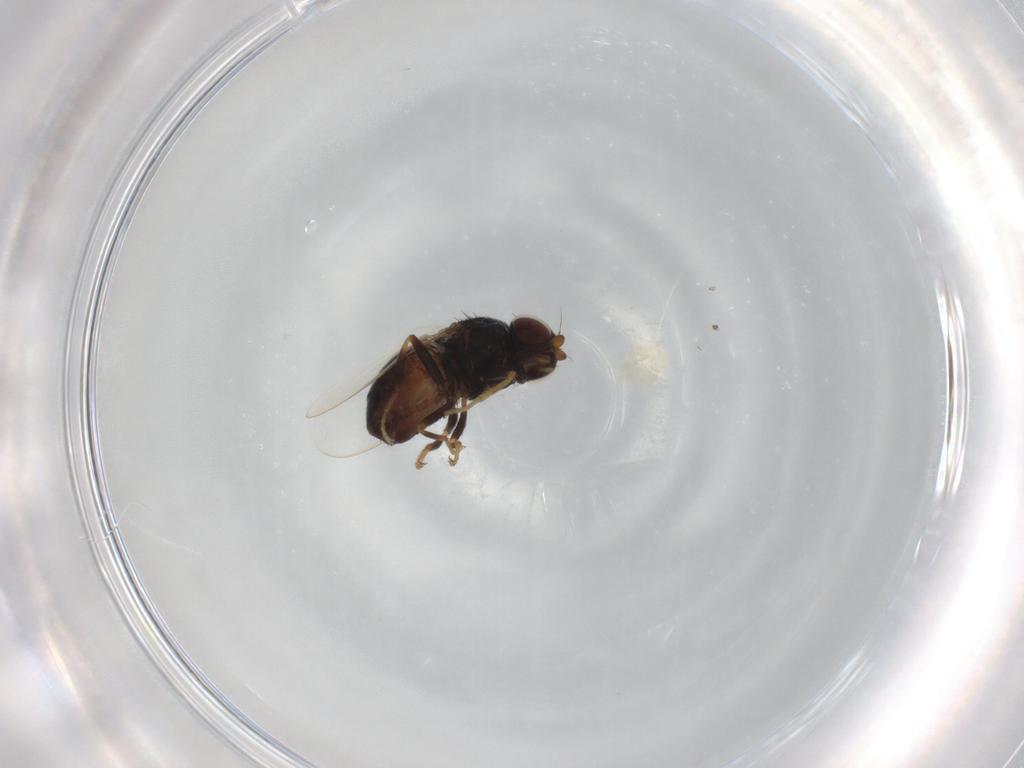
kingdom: Animalia
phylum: Arthropoda
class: Insecta
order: Diptera
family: Chloropidae
